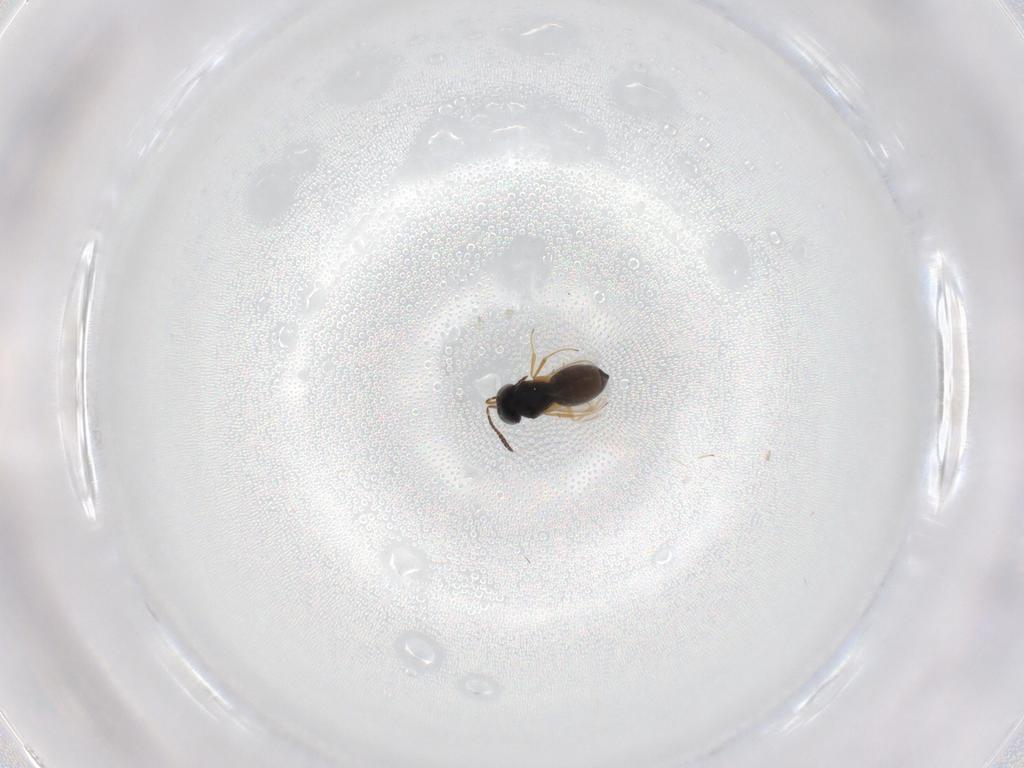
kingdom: Animalia
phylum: Arthropoda
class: Insecta
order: Hymenoptera
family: Scelionidae
